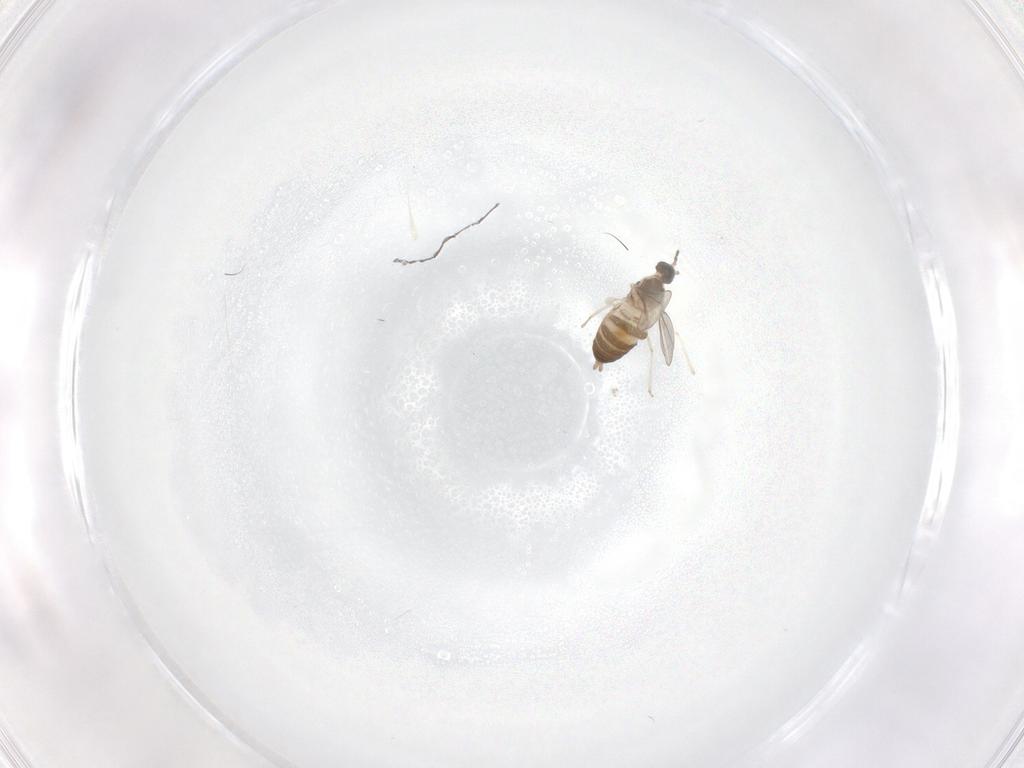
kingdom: Animalia
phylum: Arthropoda
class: Insecta
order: Diptera
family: Cecidomyiidae
